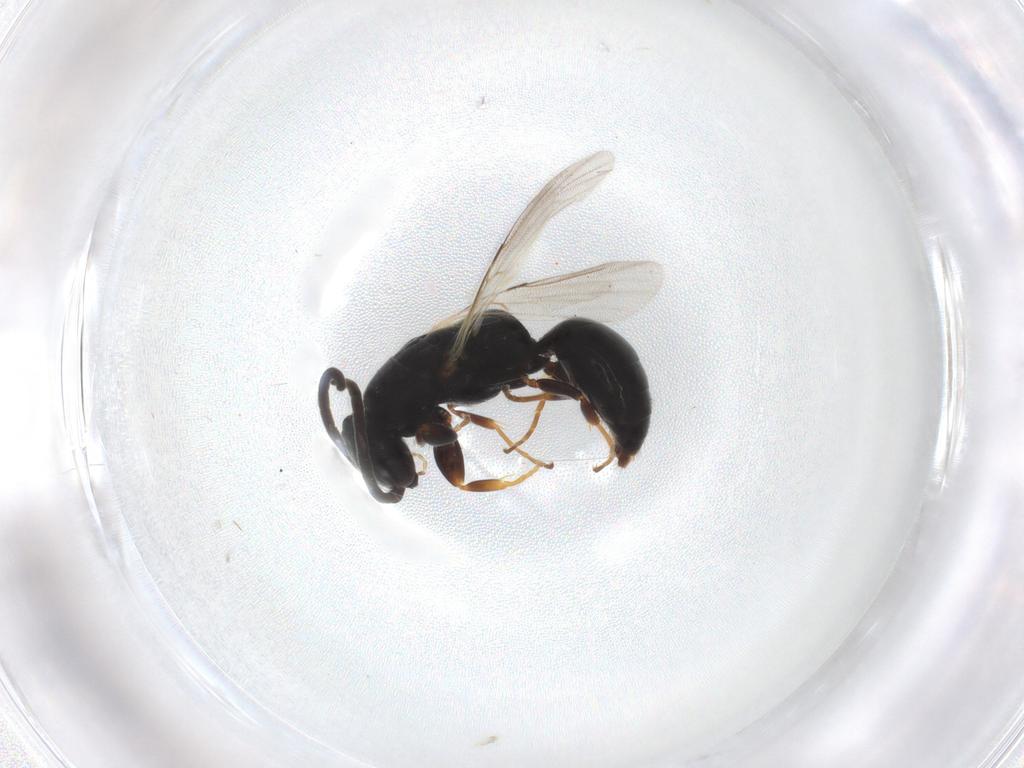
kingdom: Animalia
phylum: Arthropoda
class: Insecta
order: Hymenoptera
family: Bethylidae
